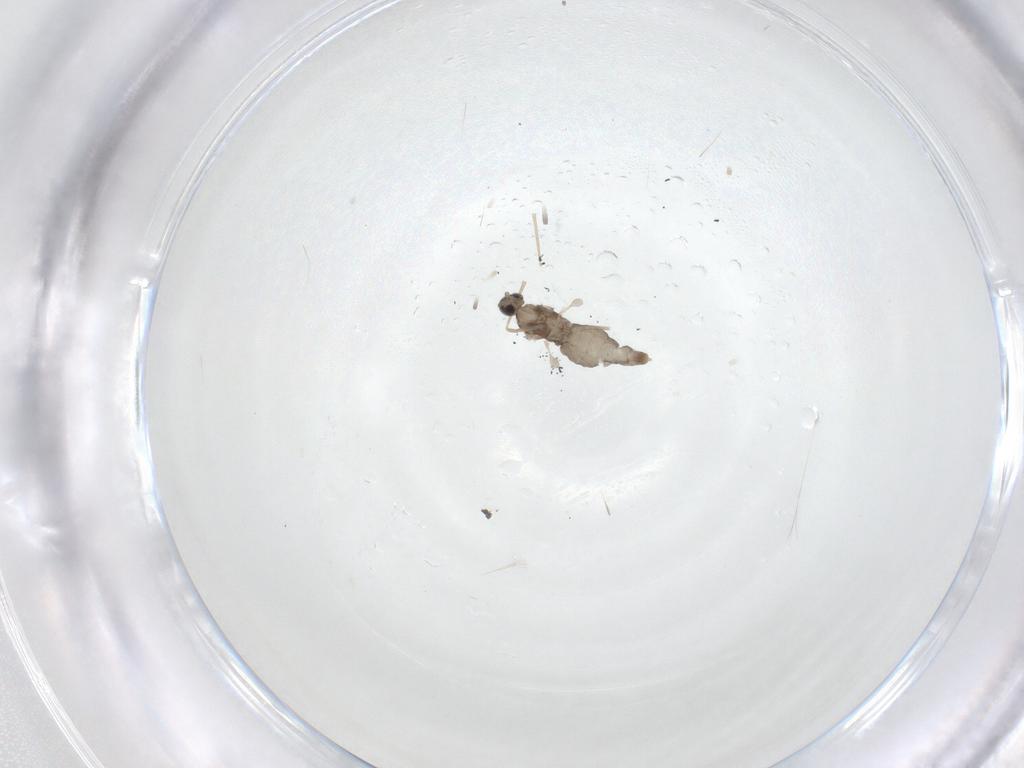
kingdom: Animalia
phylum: Arthropoda
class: Insecta
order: Diptera
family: Cecidomyiidae
